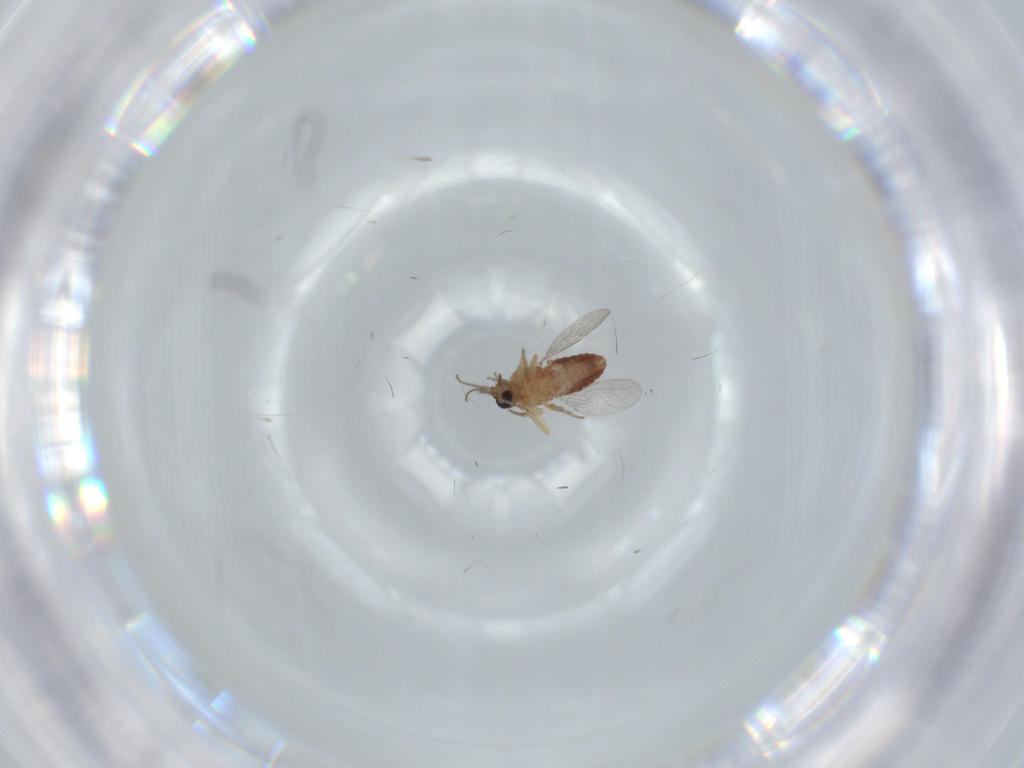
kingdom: Animalia
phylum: Arthropoda
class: Insecta
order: Diptera
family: Ceratopogonidae
